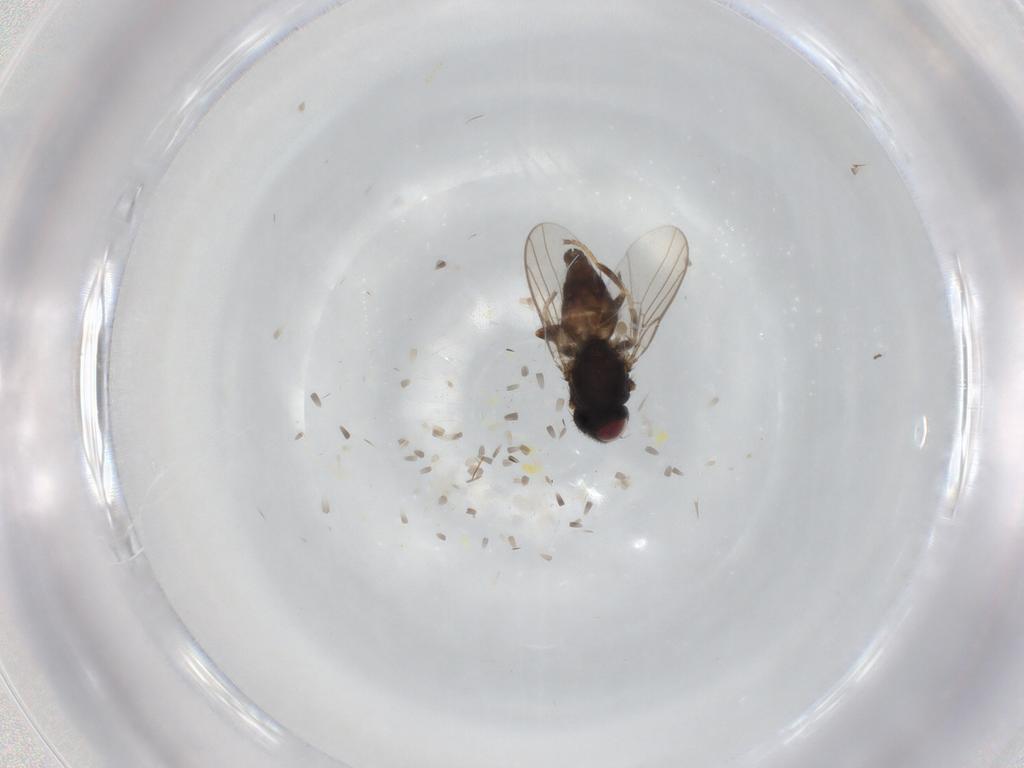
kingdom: Animalia
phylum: Arthropoda
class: Insecta
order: Diptera
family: Chloropidae
